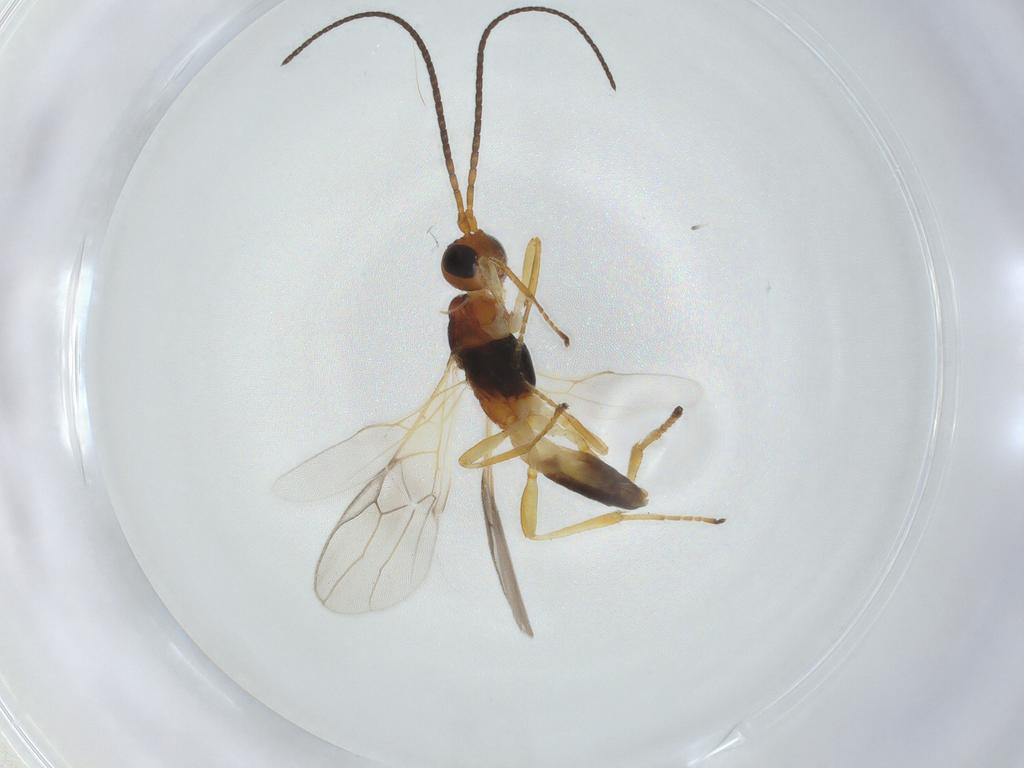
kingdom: Animalia
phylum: Arthropoda
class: Insecta
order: Hymenoptera
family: Braconidae
